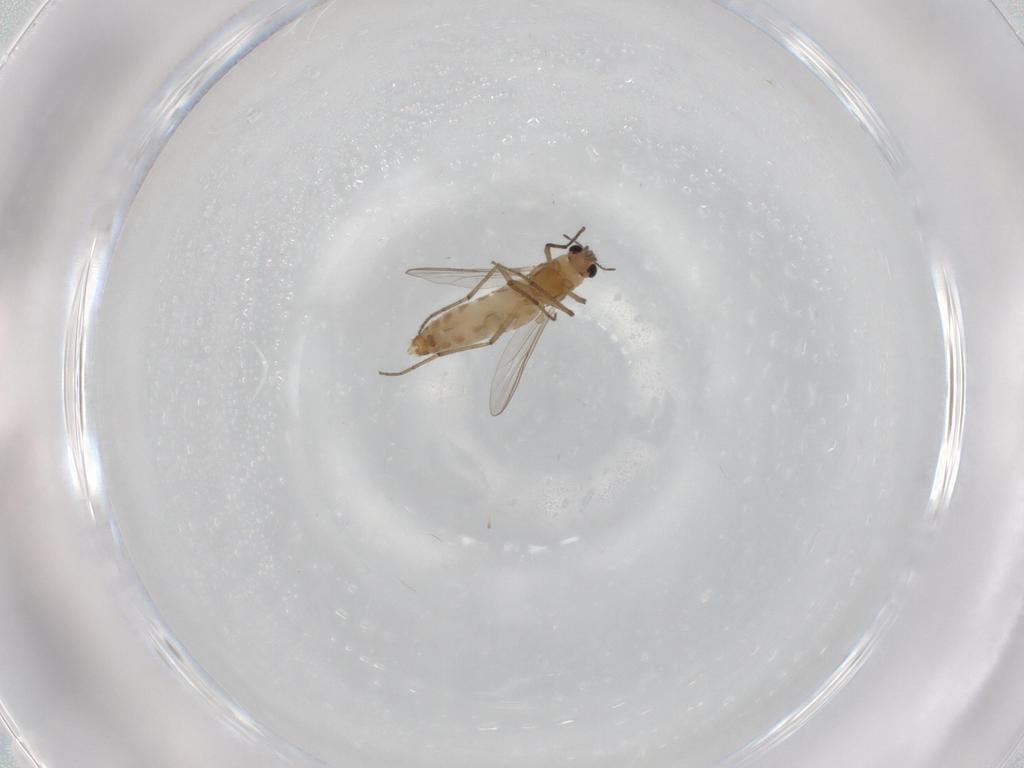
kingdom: Animalia
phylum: Arthropoda
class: Insecta
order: Diptera
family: Chironomidae
